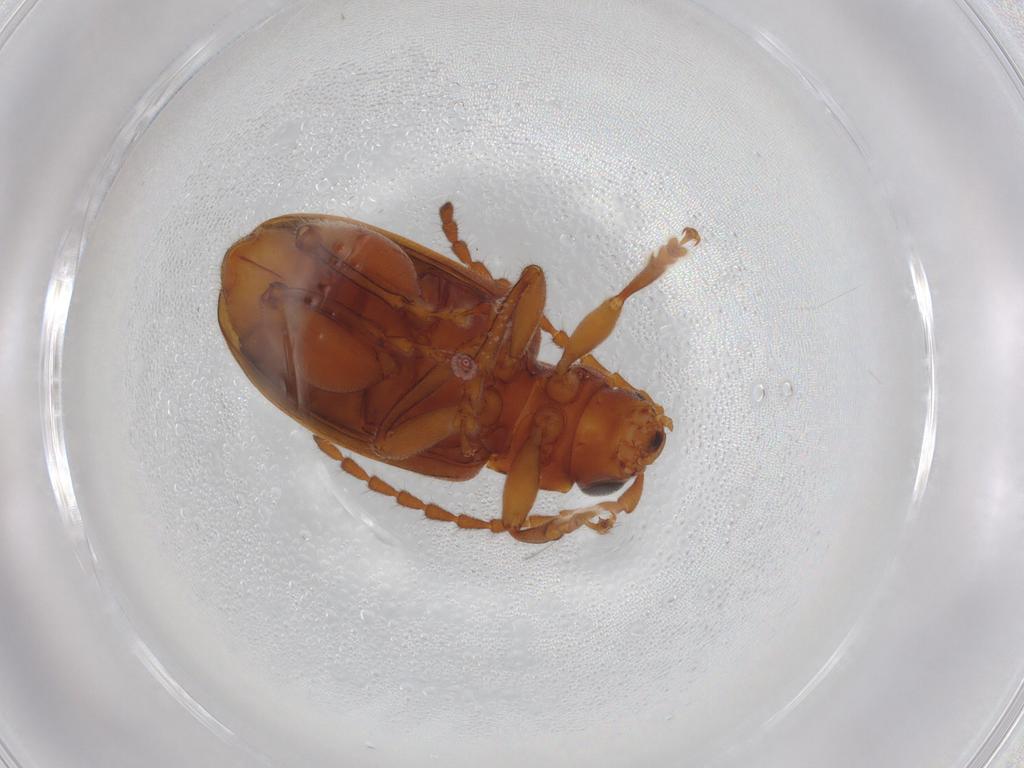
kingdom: Animalia
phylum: Arthropoda
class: Insecta
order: Coleoptera
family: Chrysomelidae
